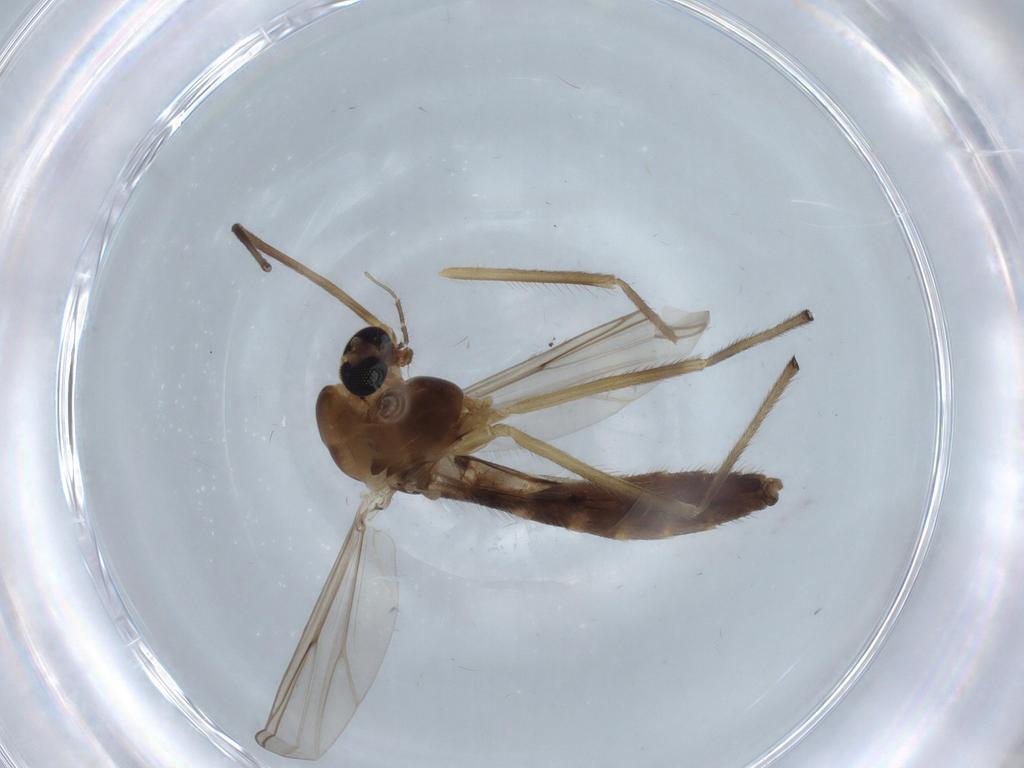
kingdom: Animalia
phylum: Arthropoda
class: Insecta
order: Diptera
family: Chironomidae
